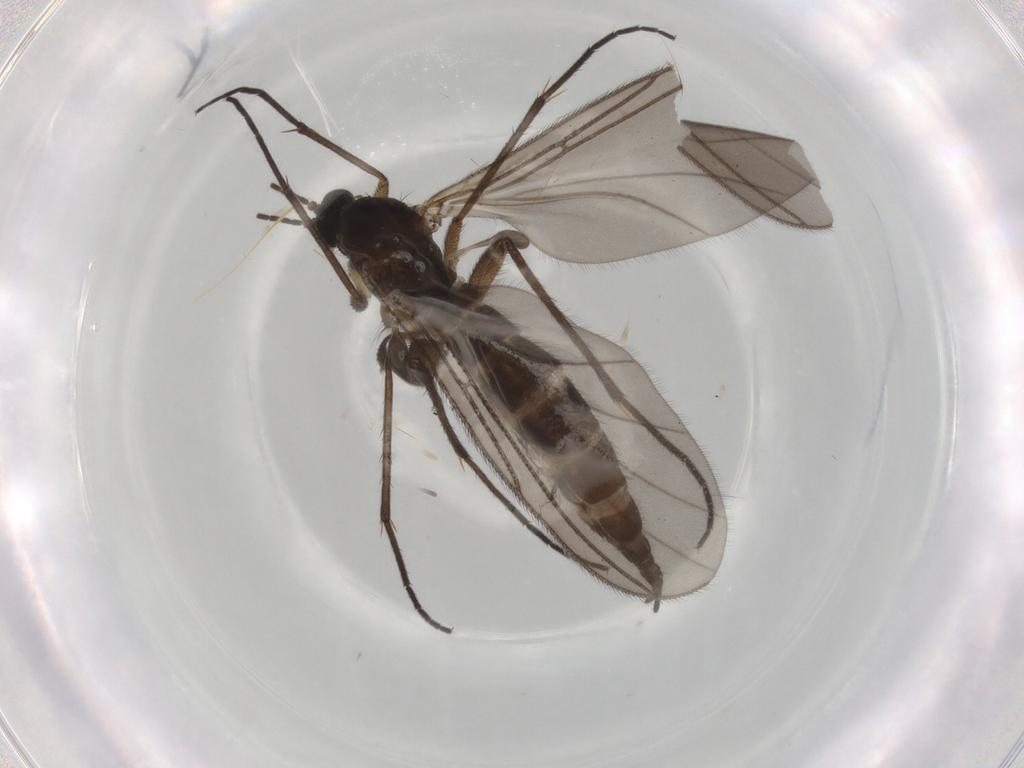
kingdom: Animalia
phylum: Arthropoda
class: Insecta
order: Diptera
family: Sciaridae
